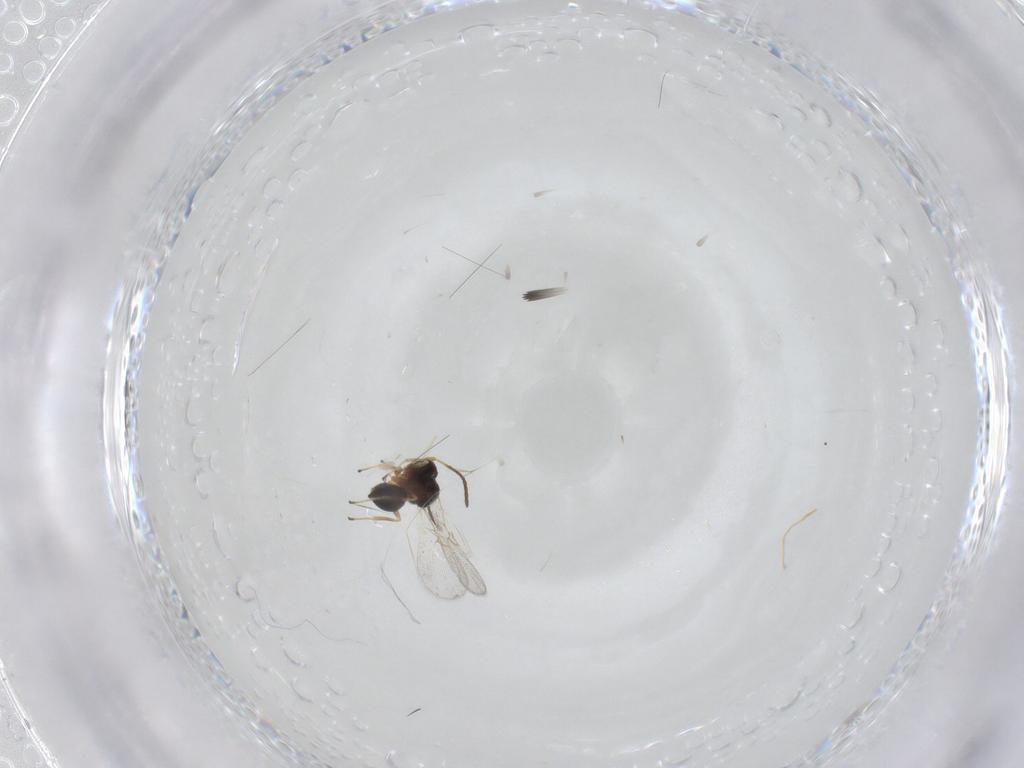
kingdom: Animalia
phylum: Arthropoda
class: Insecta
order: Hymenoptera
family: Figitidae
